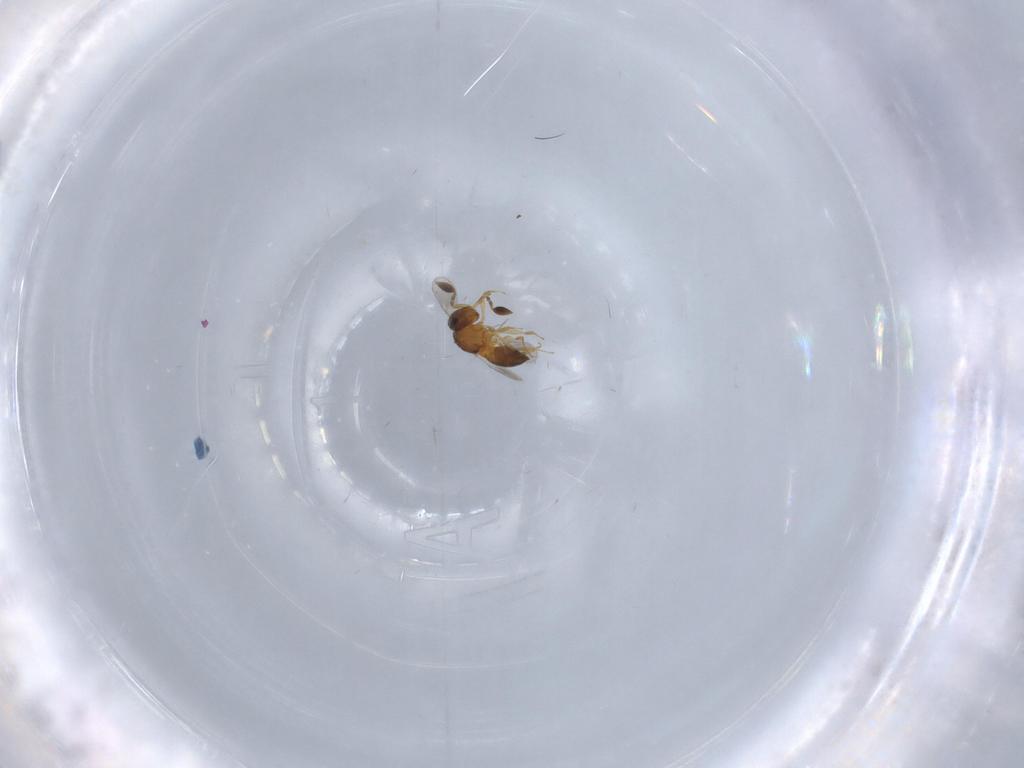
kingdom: Animalia
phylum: Arthropoda
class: Insecta
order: Hymenoptera
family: Scelionidae
